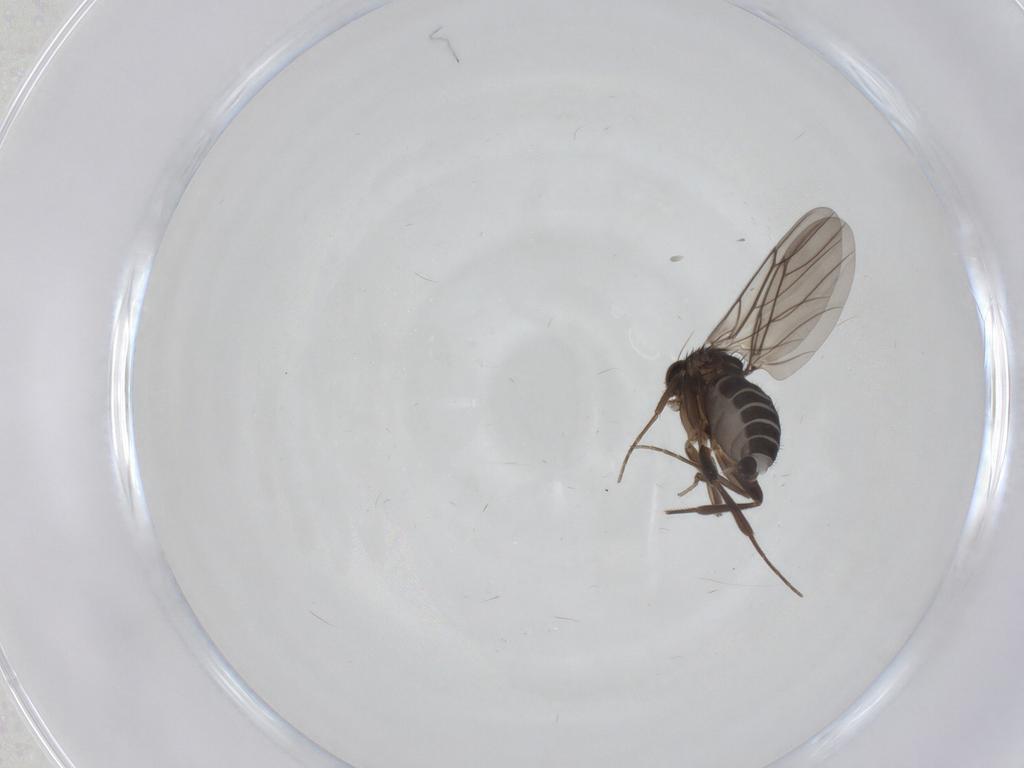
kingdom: Animalia
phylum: Arthropoda
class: Insecta
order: Diptera
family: Phoridae
